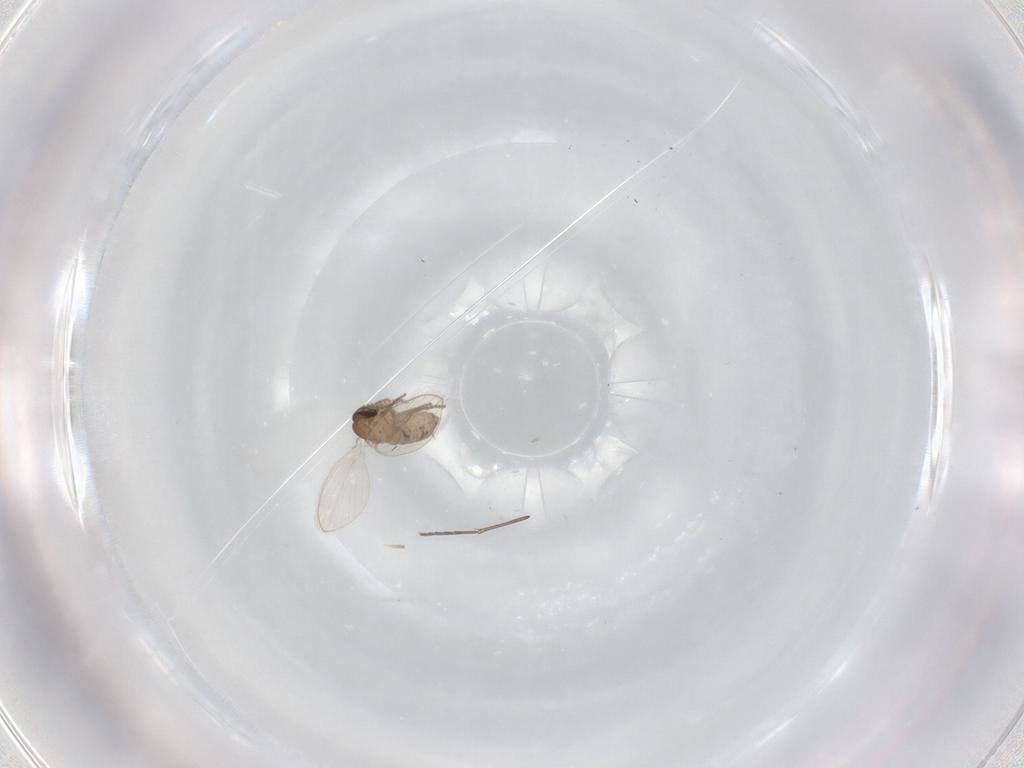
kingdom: Animalia
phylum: Arthropoda
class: Insecta
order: Diptera
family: Psychodidae
